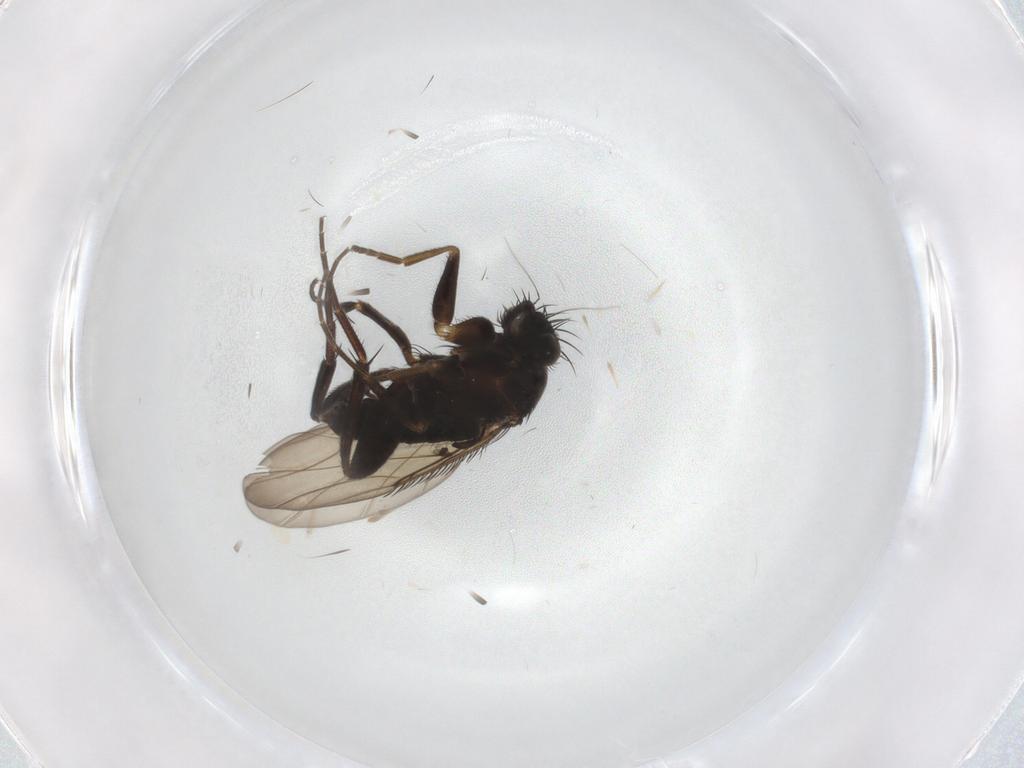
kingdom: Animalia
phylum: Arthropoda
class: Insecta
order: Diptera
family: Phoridae
